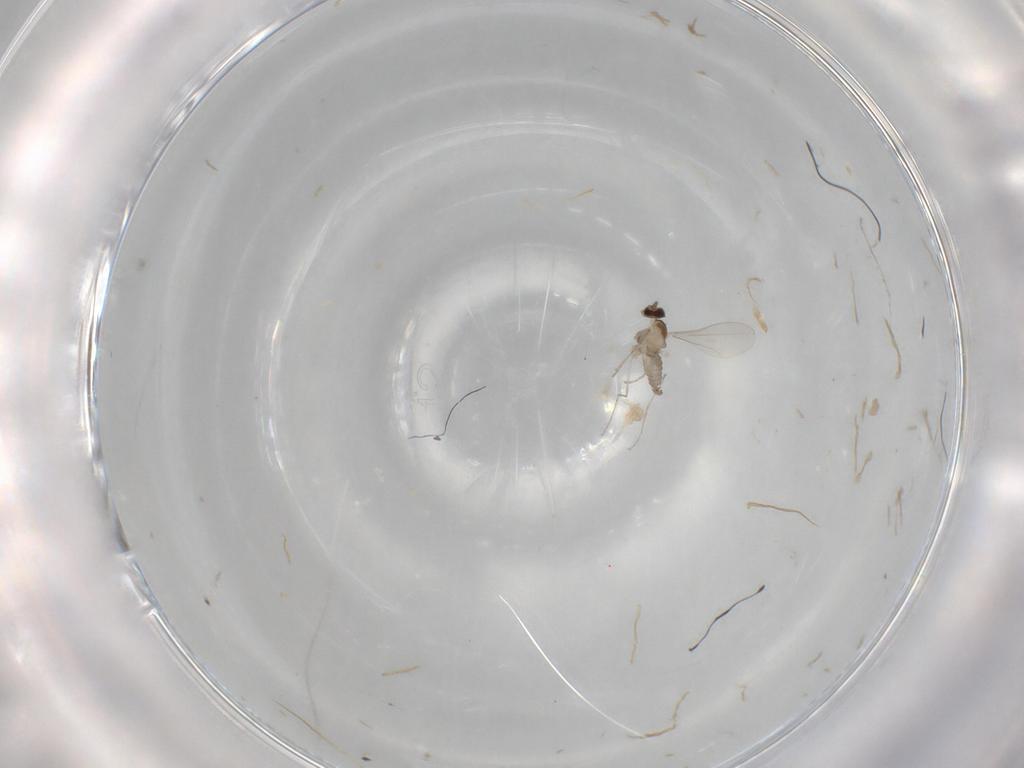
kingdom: Animalia
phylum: Arthropoda
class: Insecta
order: Diptera
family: Cecidomyiidae
